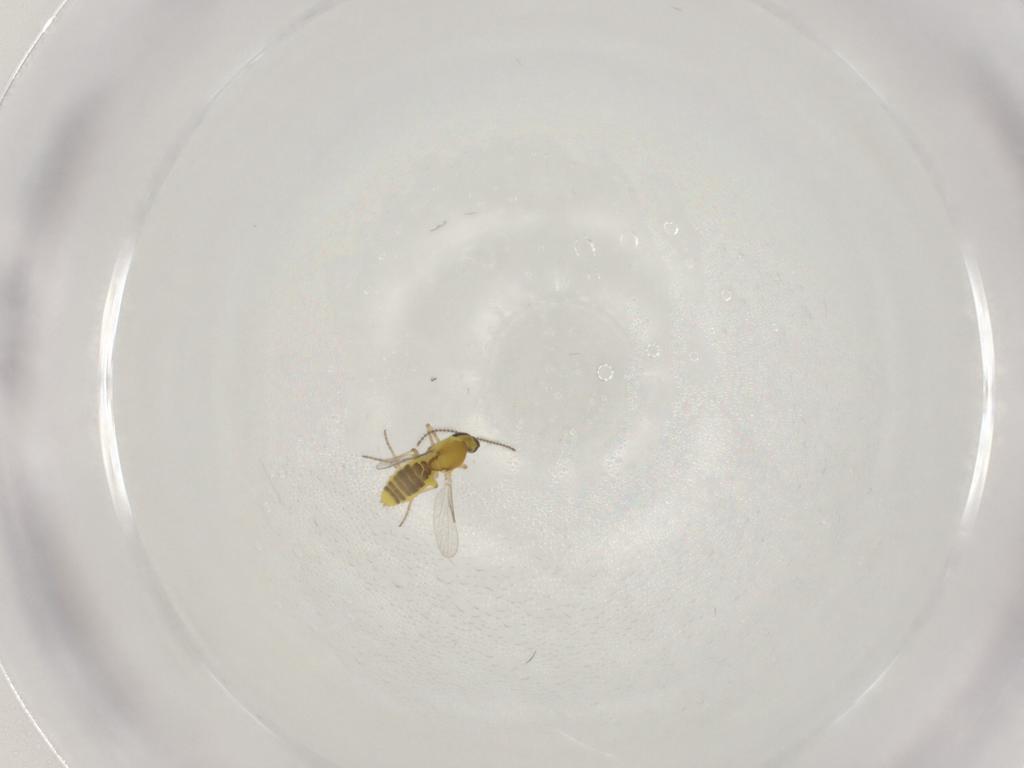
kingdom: Animalia
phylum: Arthropoda
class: Insecta
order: Diptera
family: Ceratopogonidae
